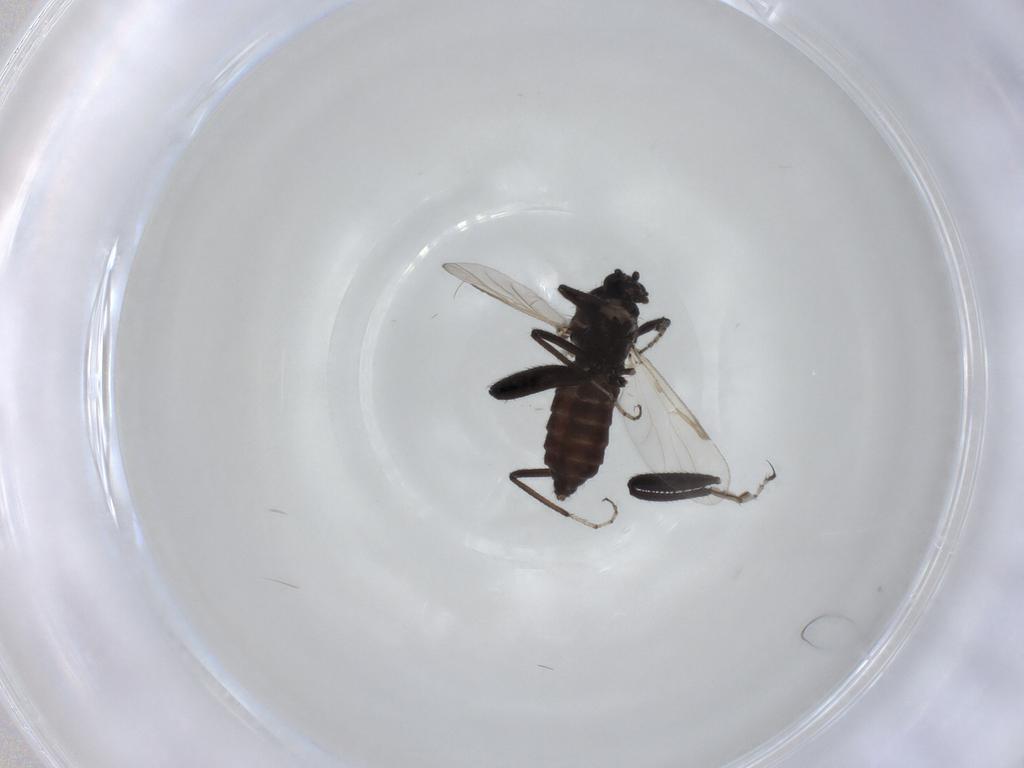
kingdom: Animalia
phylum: Arthropoda
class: Insecta
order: Diptera
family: Ceratopogonidae
